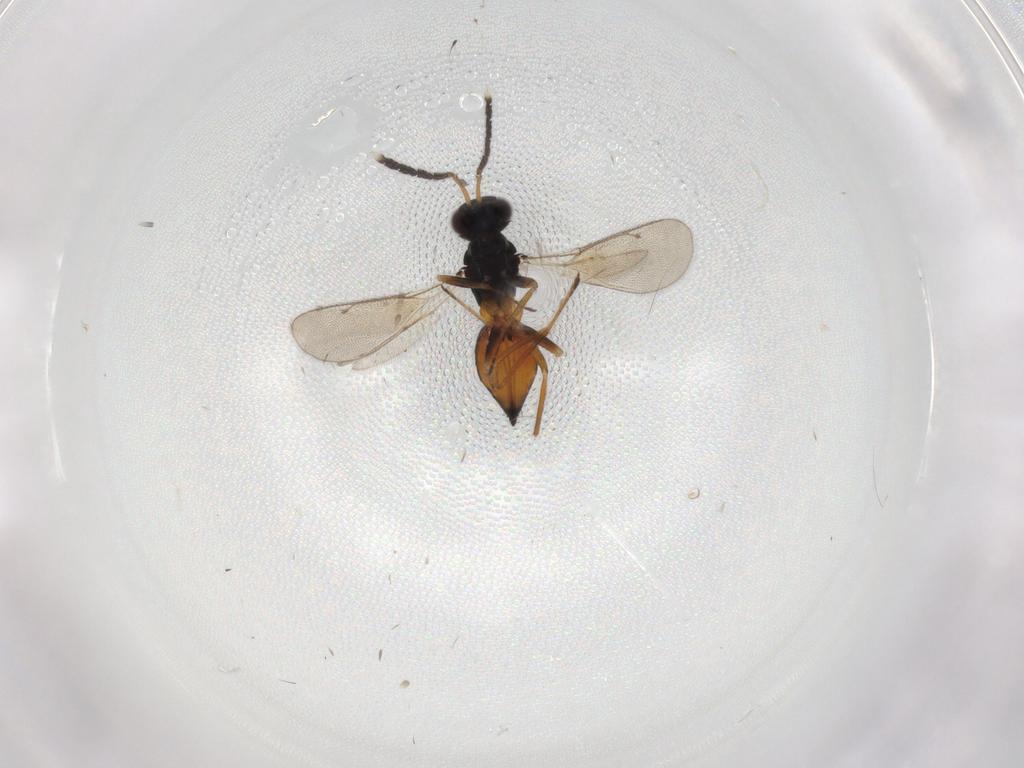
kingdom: Animalia
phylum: Arthropoda
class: Insecta
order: Hymenoptera
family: Eulophidae
